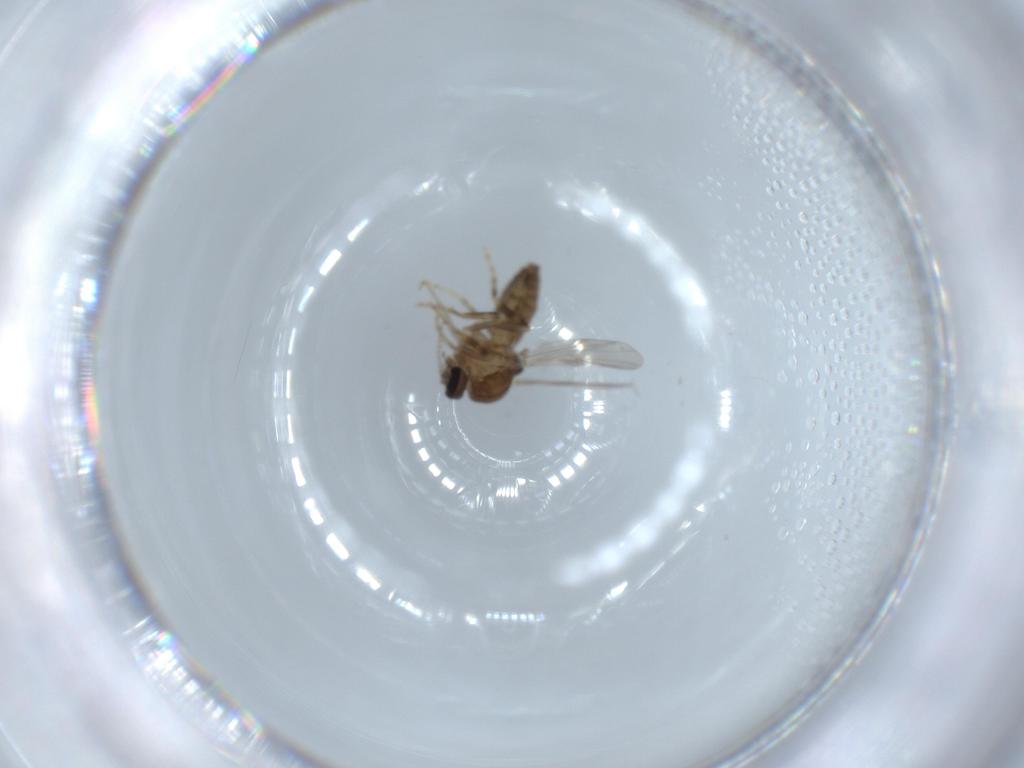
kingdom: Animalia
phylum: Arthropoda
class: Insecta
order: Diptera
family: Ceratopogonidae
